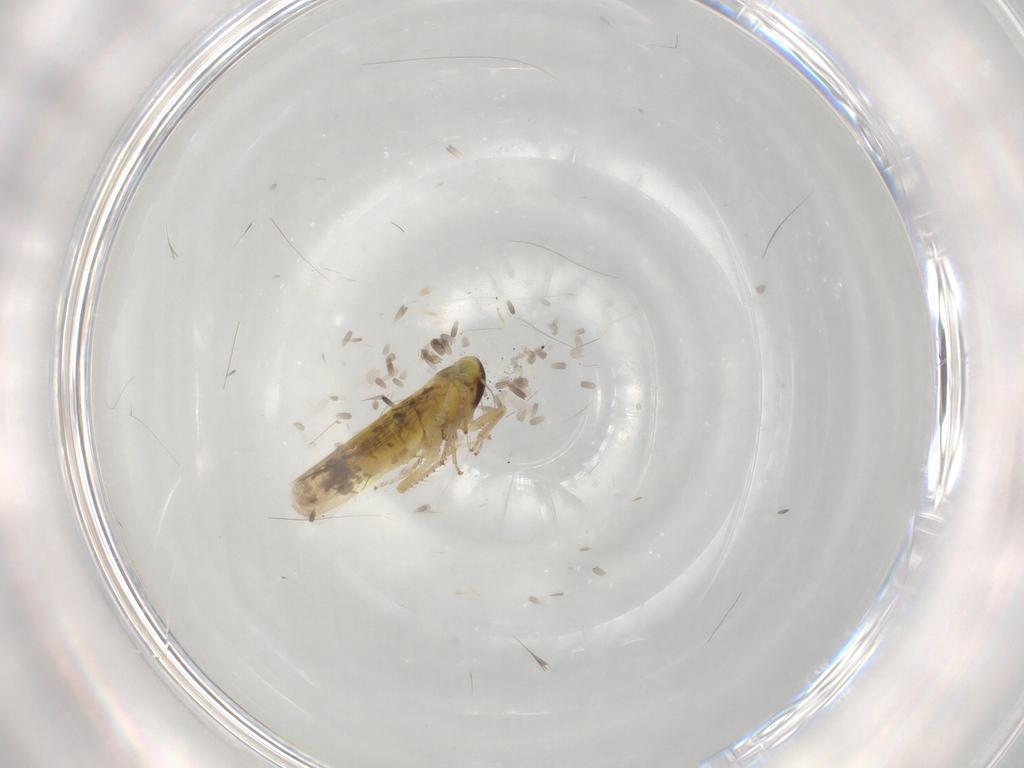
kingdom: Animalia
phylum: Arthropoda
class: Insecta
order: Hemiptera
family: Cicadellidae
